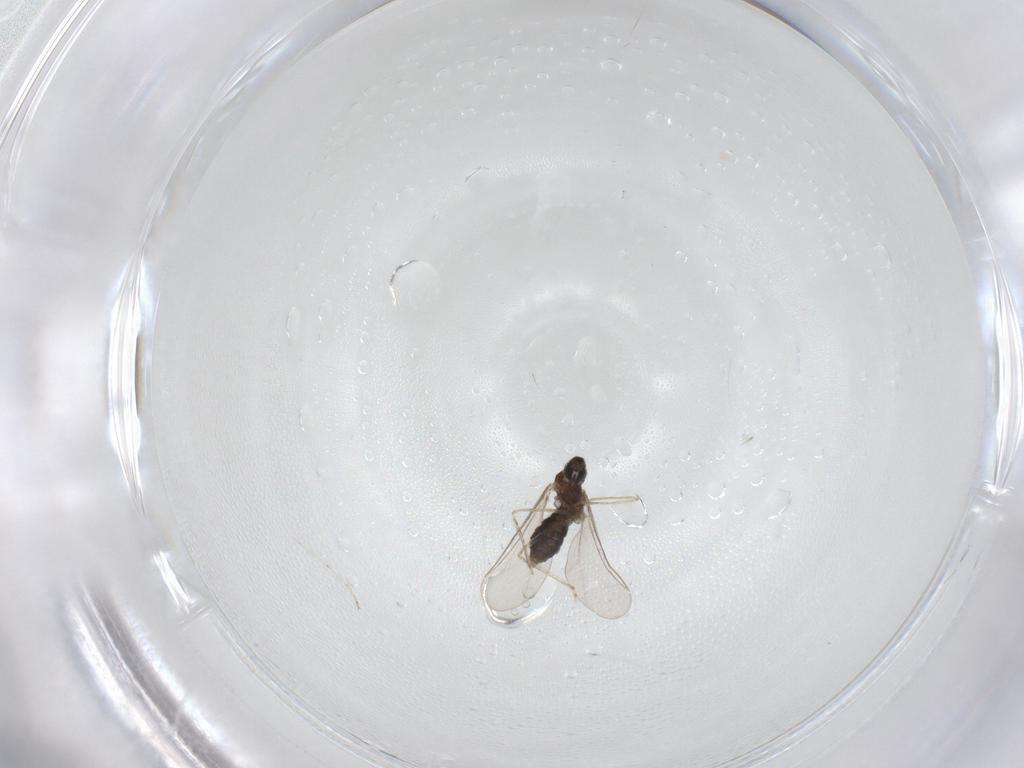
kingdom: Animalia
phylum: Arthropoda
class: Insecta
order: Diptera
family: Cecidomyiidae
